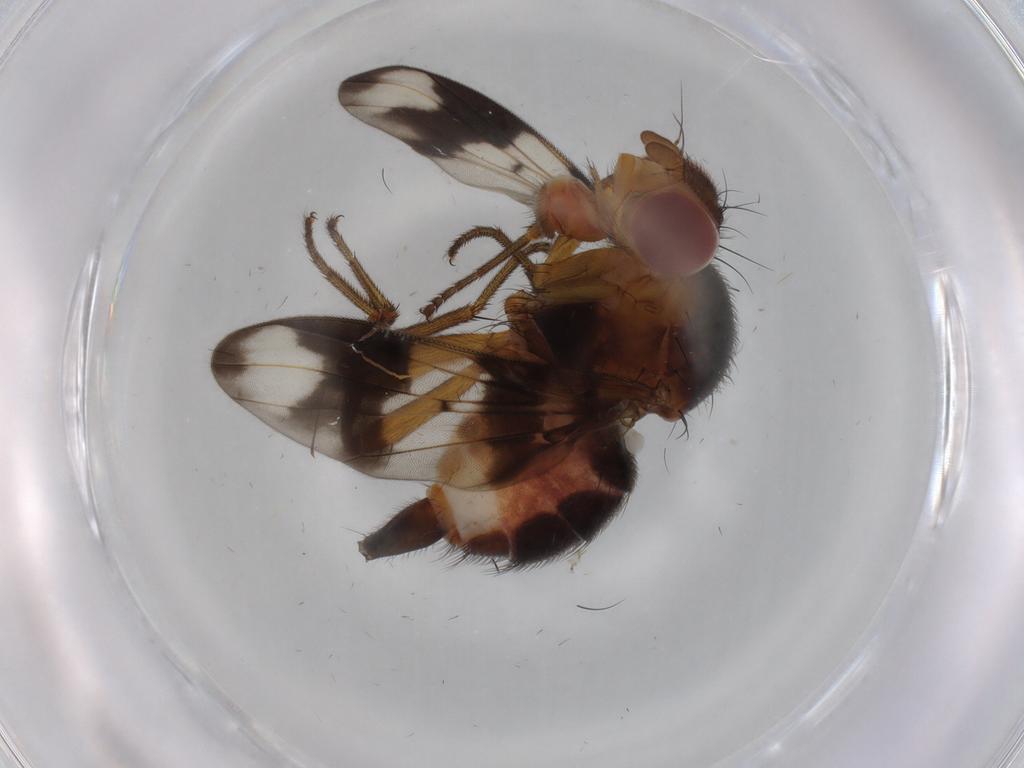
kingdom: Animalia
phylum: Arthropoda
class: Insecta
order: Diptera
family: Richardiidae
